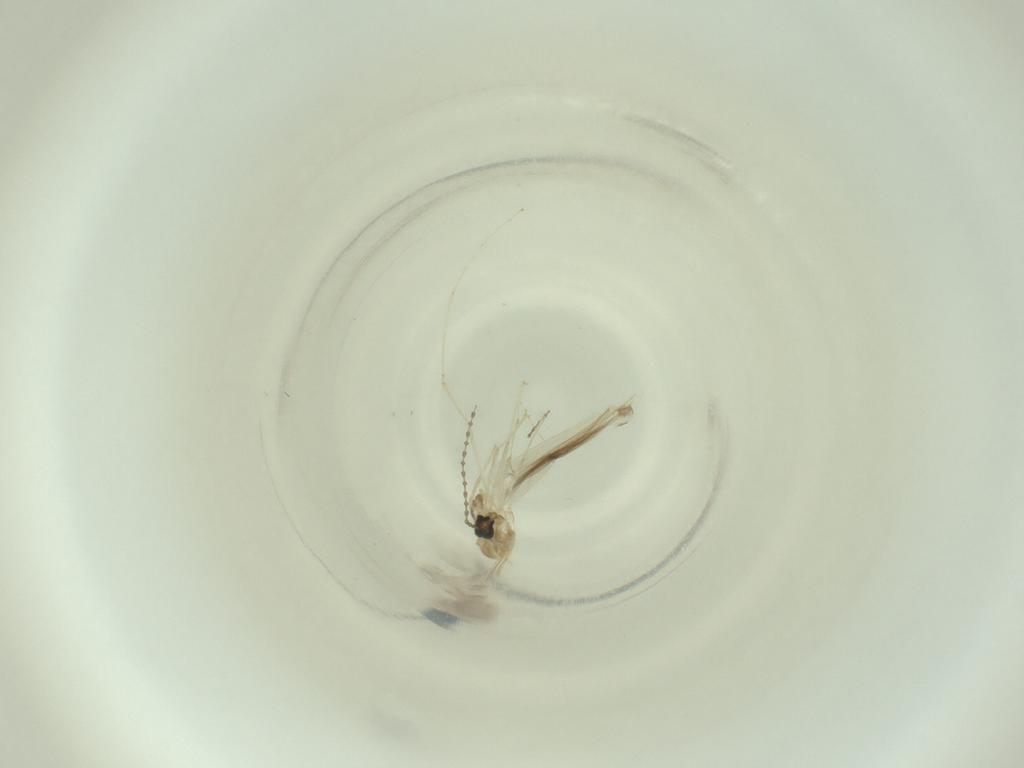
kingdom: Animalia
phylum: Arthropoda
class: Insecta
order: Diptera
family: Cecidomyiidae
